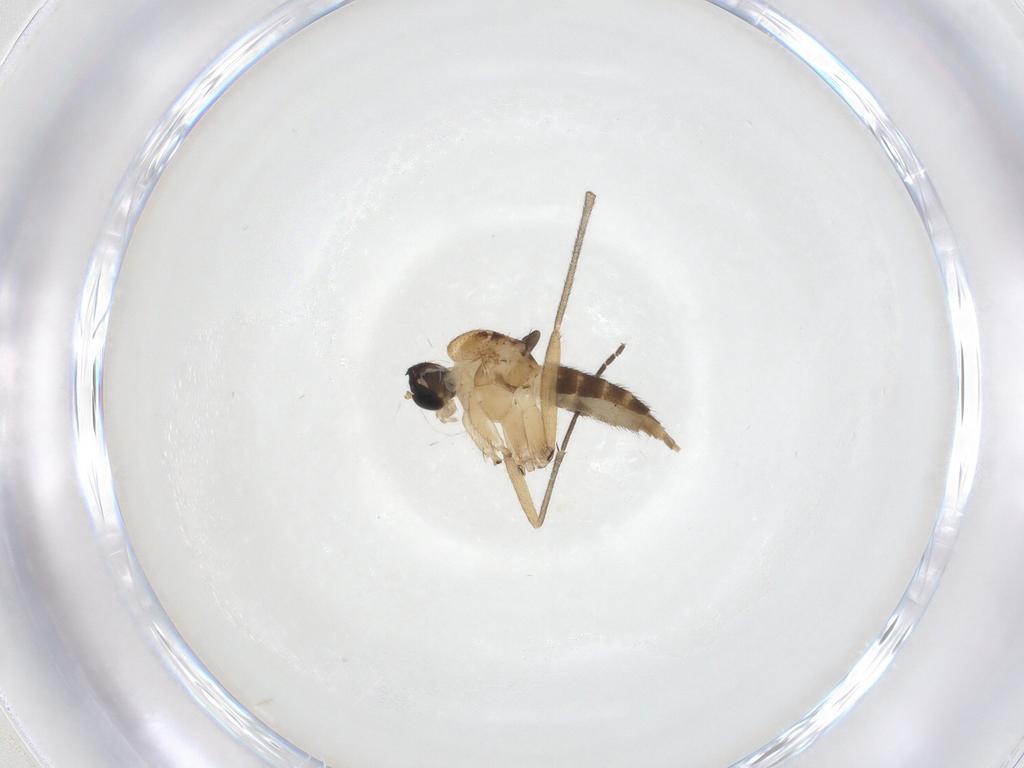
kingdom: Animalia
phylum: Arthropoda
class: Insecta
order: Diptera
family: Sciaridae
